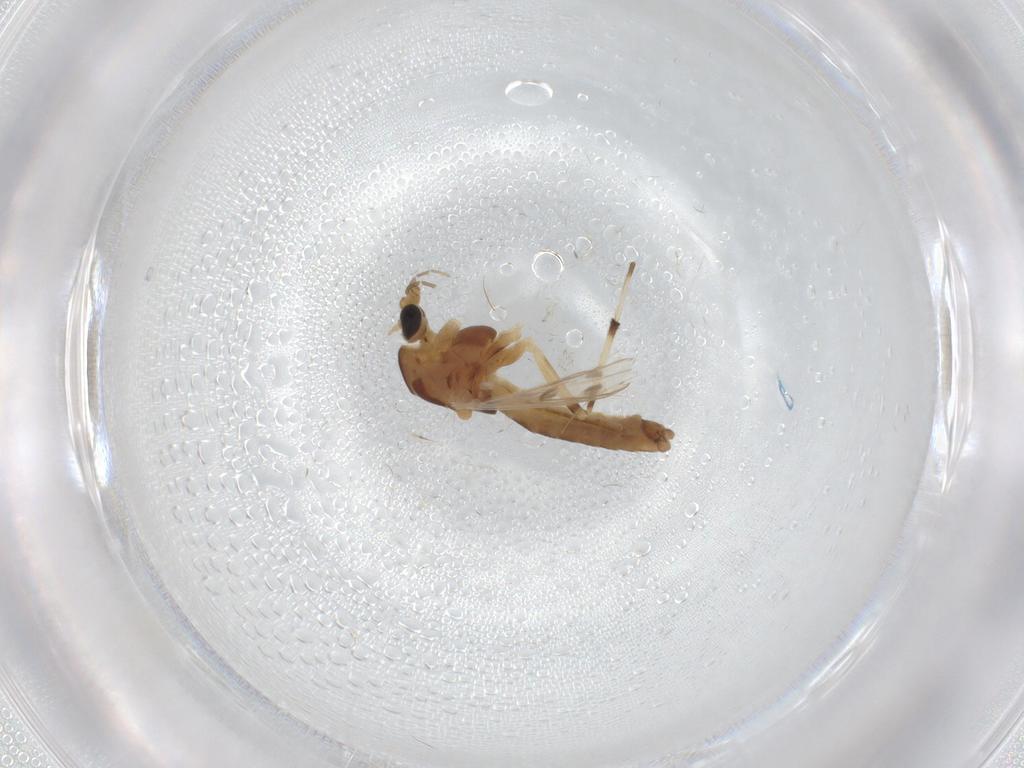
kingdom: Animalia
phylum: Arthropoda
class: Insecta
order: Diptera
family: Chironomidae
